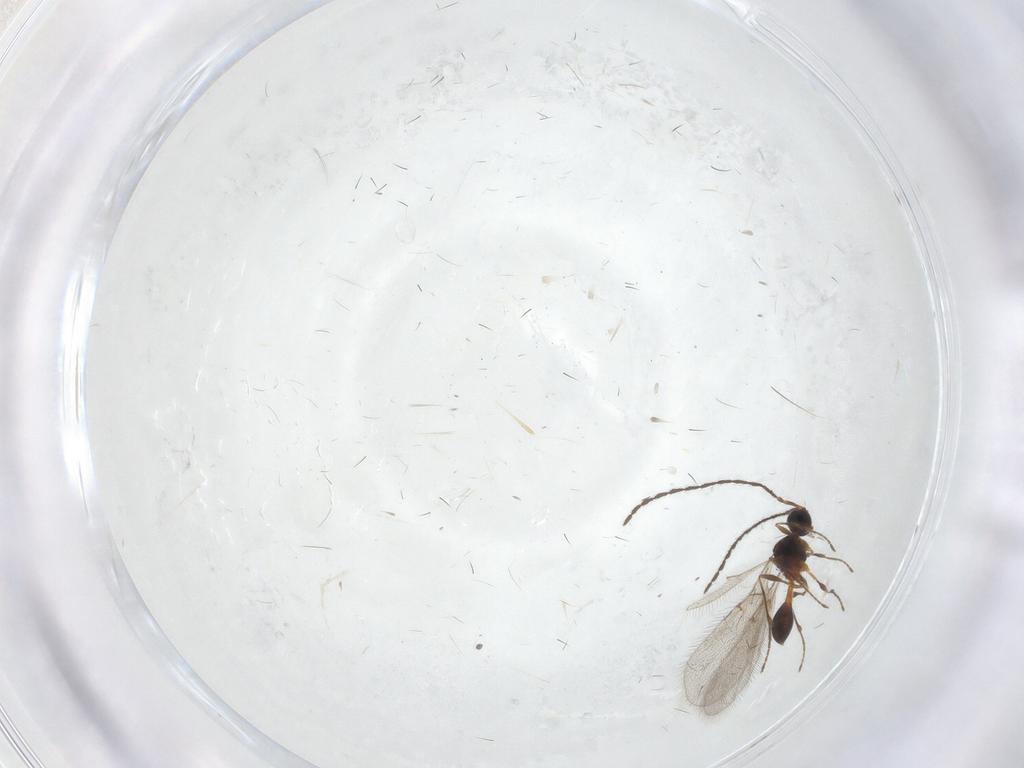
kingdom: Animalia
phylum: Arthropoda
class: Insecta
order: Hymenoptera
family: Diapriidae
